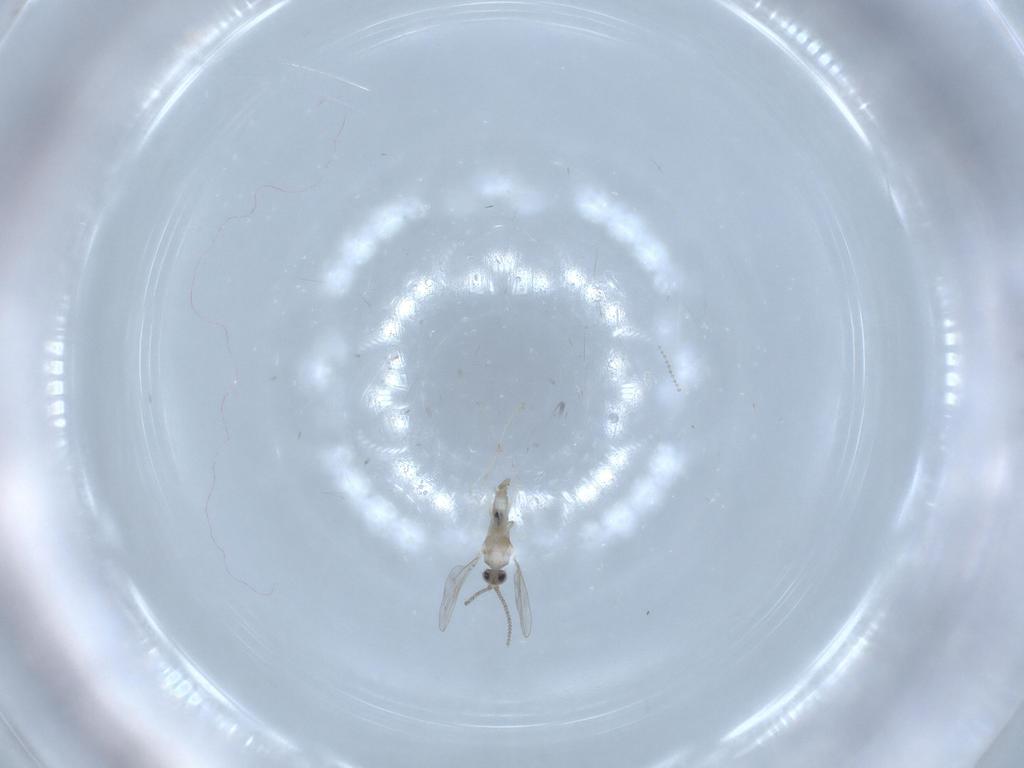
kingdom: Animalia
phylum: Arthropoda
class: Insecta
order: Diptera
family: Cecidomyiidae
